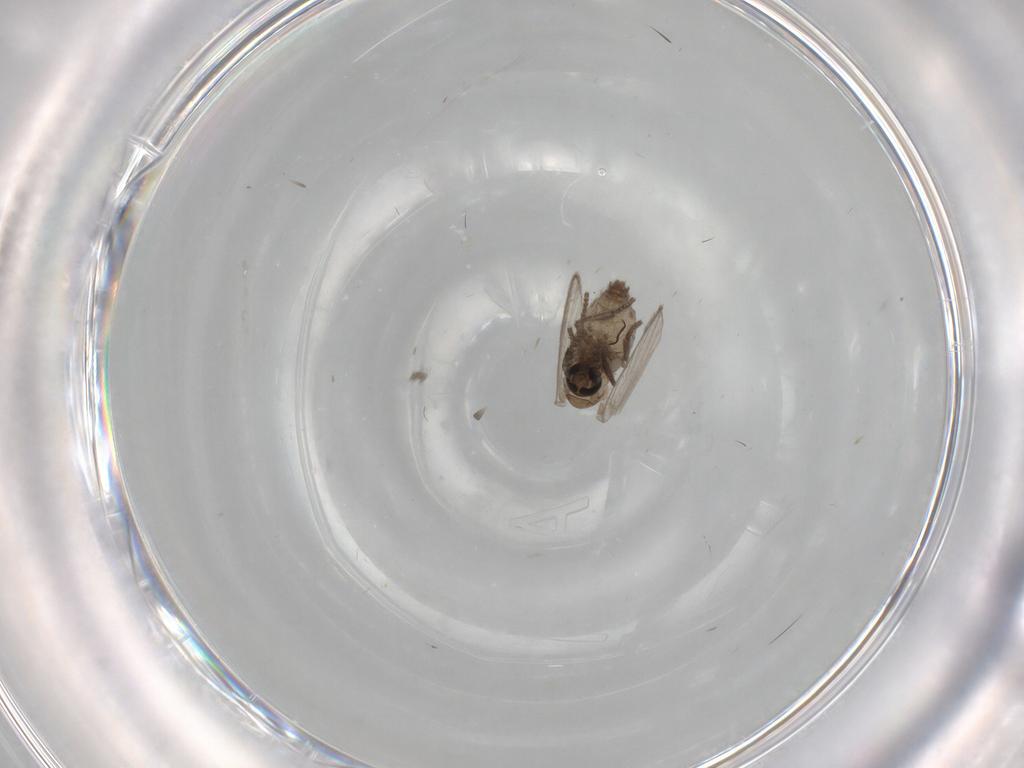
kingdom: Animalia
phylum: Arthropoda
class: Insecta
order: Diptera
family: Psychodidae
